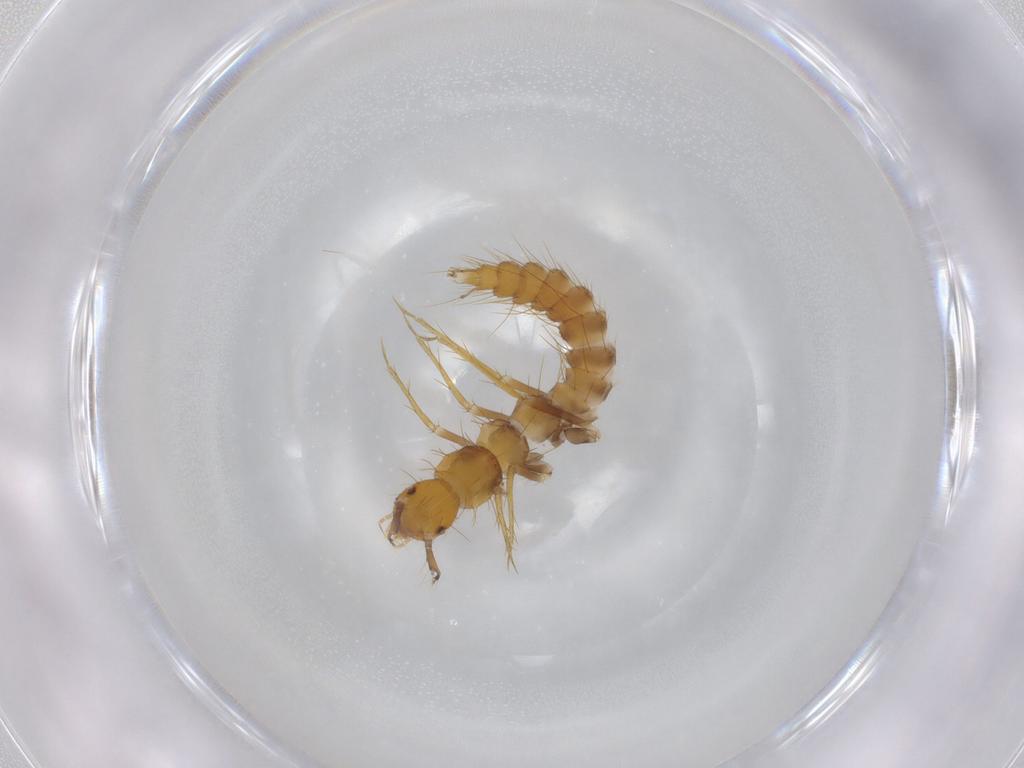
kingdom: Animalia
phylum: Arthropoda
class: Insecta
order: Coleoptera
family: Staphylinidae
